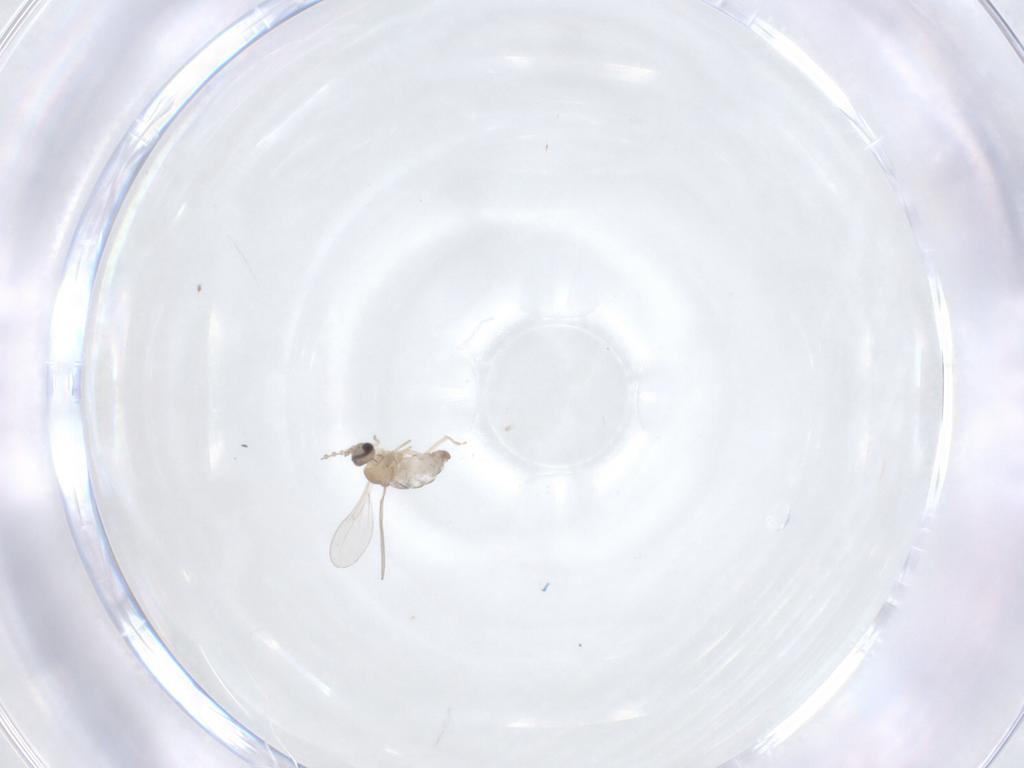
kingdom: Animalia
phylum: Arthropoda
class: Insecta
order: Diptera
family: Cecidomyiidae
